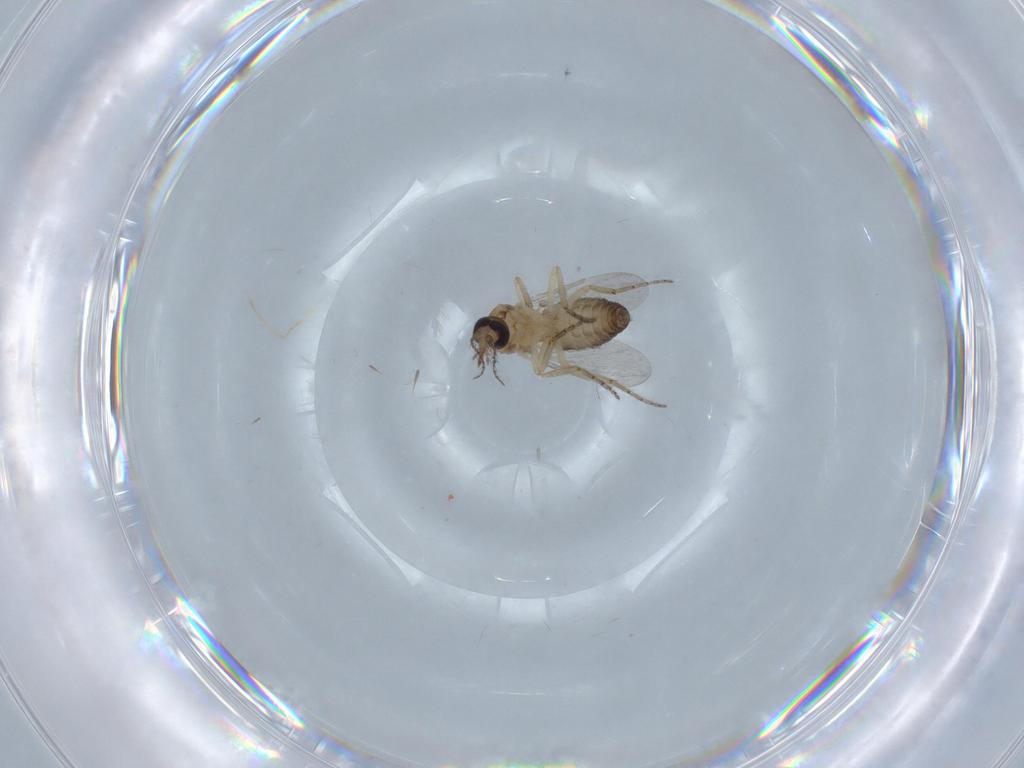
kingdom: Animalia
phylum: Arthropoda
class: Insecta
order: Diptera
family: Ceratopogonidae
